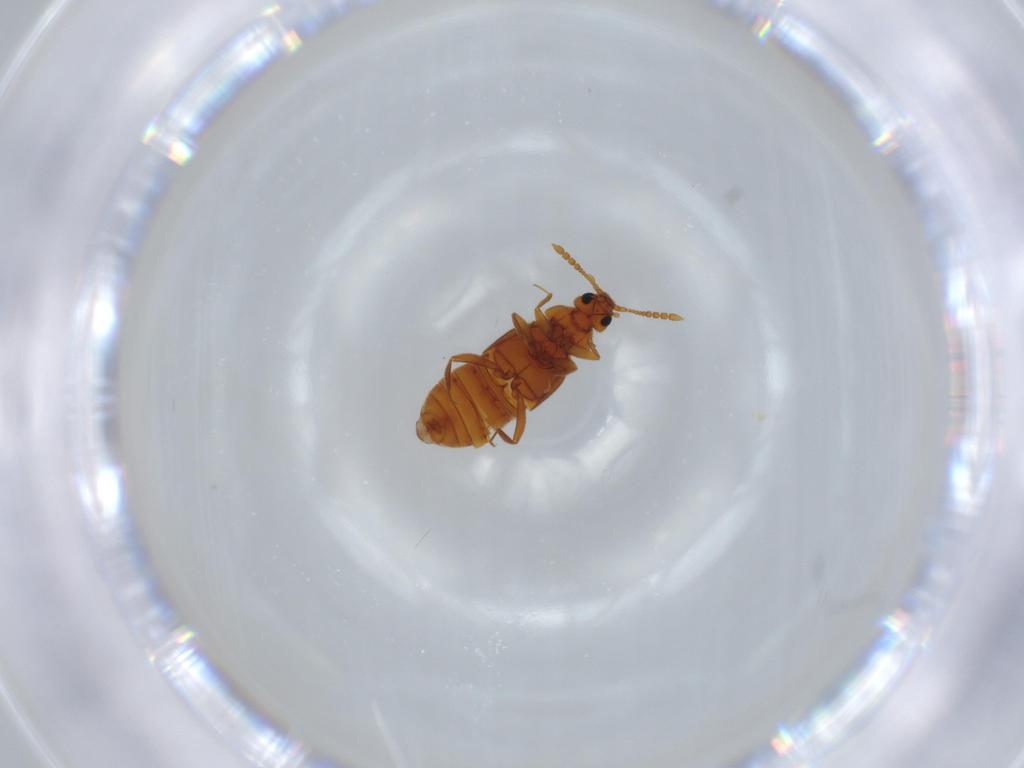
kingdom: Animalia
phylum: Arthropoda
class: Insecta
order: Coleoptera
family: Staphylinidae
